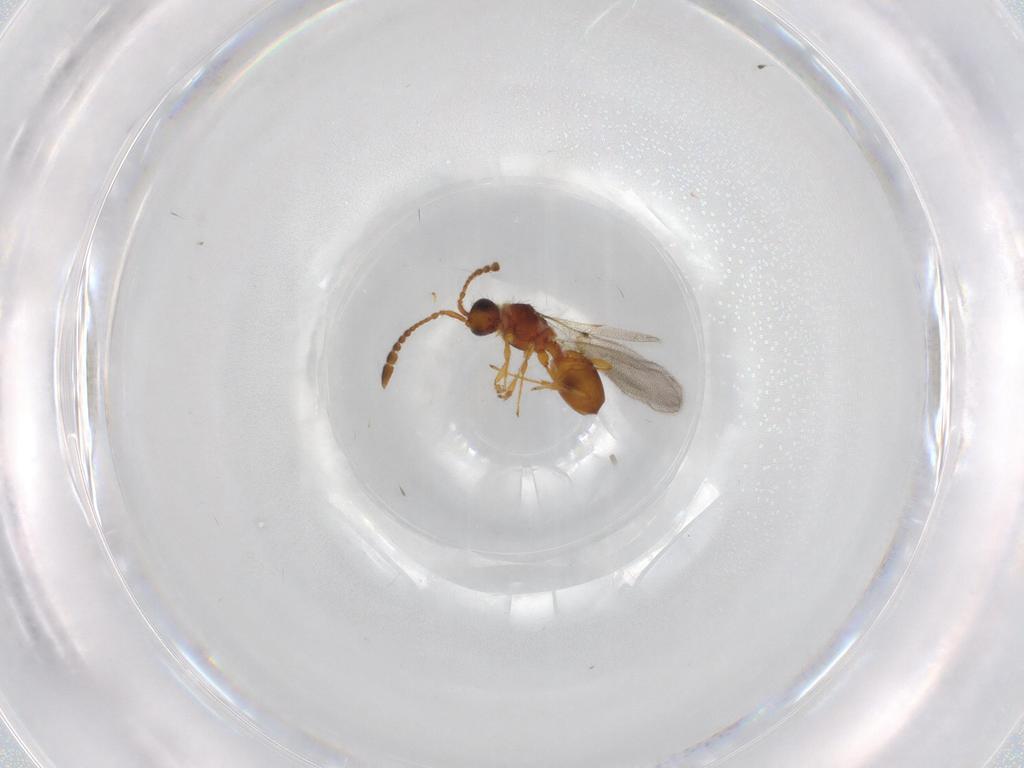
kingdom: Animalia
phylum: Arthropoda
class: Insecta
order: Hymenoptera
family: Diapriidae
